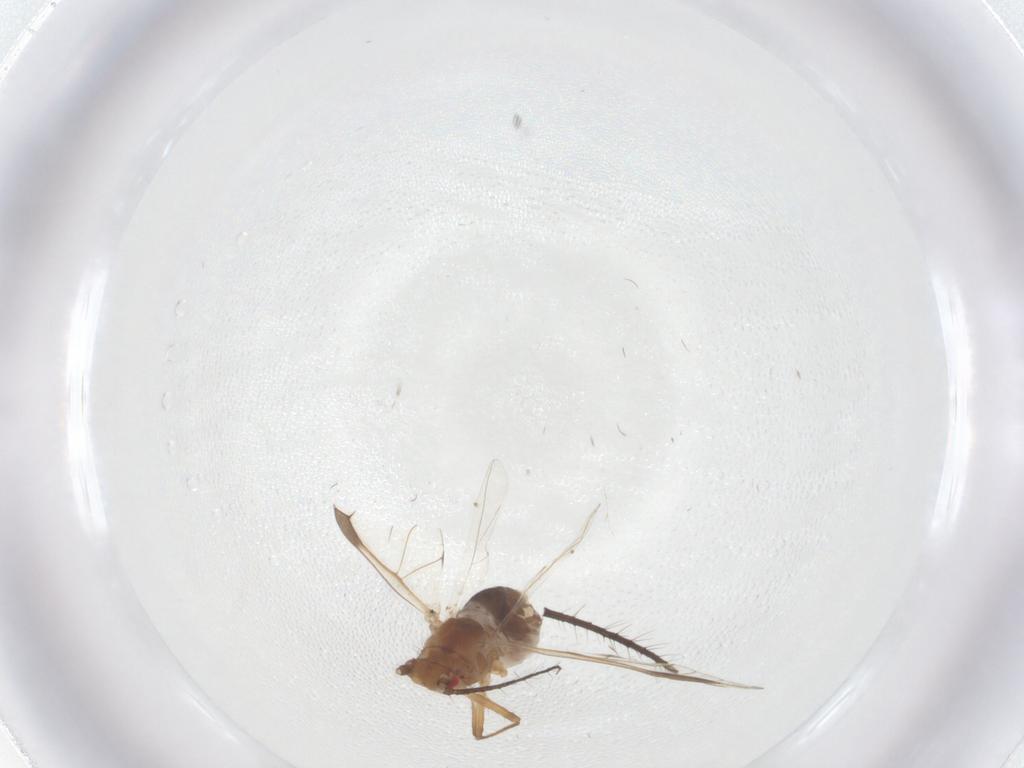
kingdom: Animalia
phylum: Arthropoda
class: Insecta
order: Hemiptera
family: Aphididae
